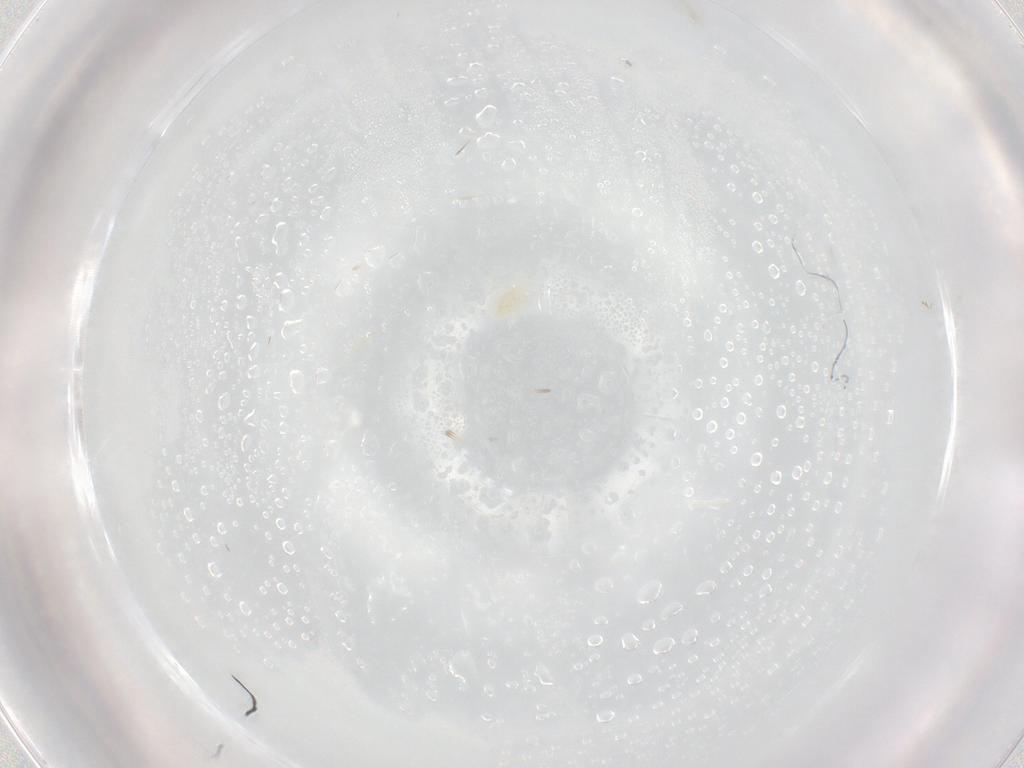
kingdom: Animalia
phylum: Arthropoda
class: Arachnida
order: Trombidiformes
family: Eupodidae
